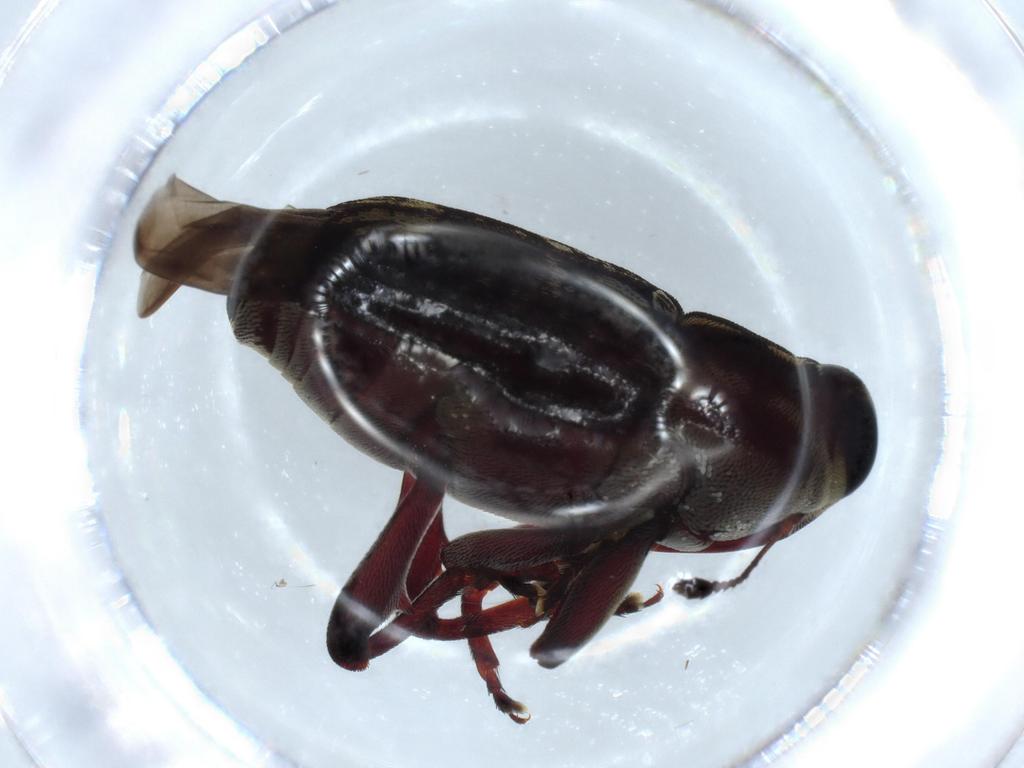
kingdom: Animalia
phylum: Arthropoda
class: Insecta
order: Coleoptera
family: Curculionidae
